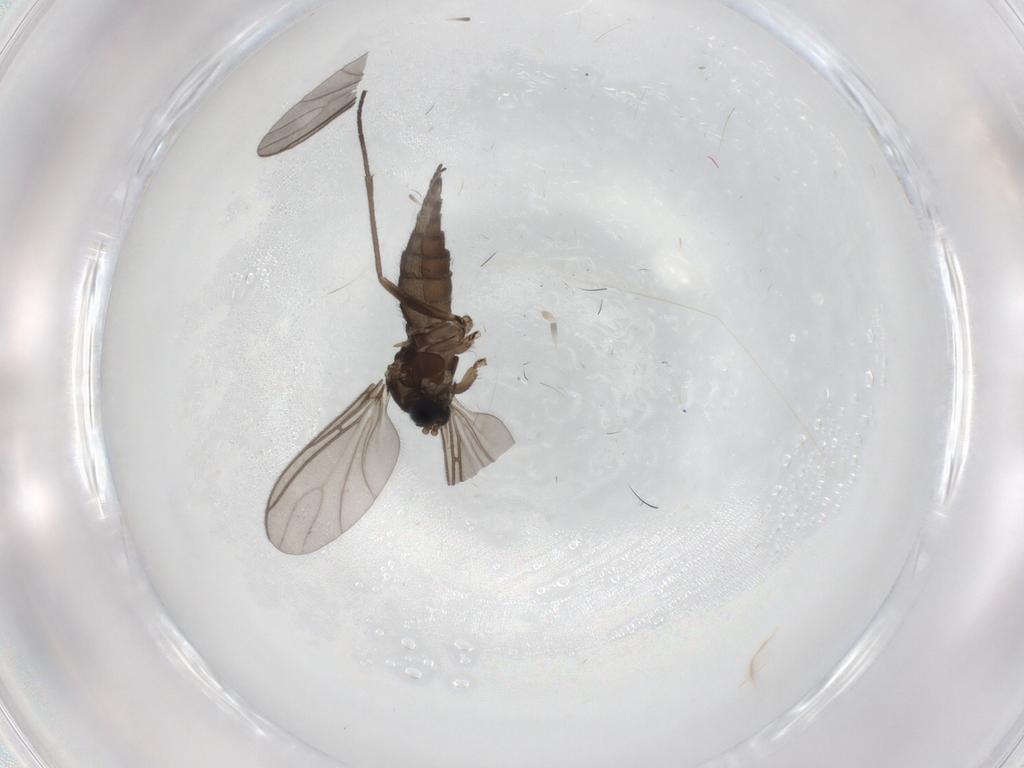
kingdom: Animalia
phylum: Arthropoda
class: Insecta
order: Diptera
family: Sciaridae
